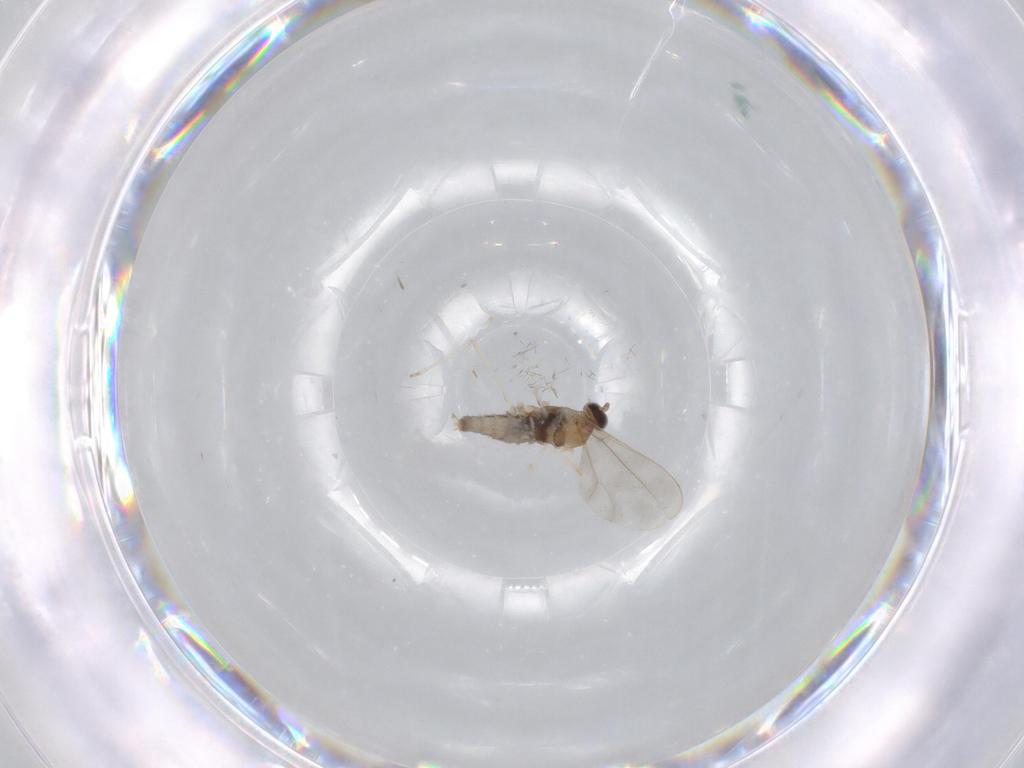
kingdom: Animalia
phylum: Arthropoda
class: Insecta
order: Diptera
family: Cecidomyiidae
